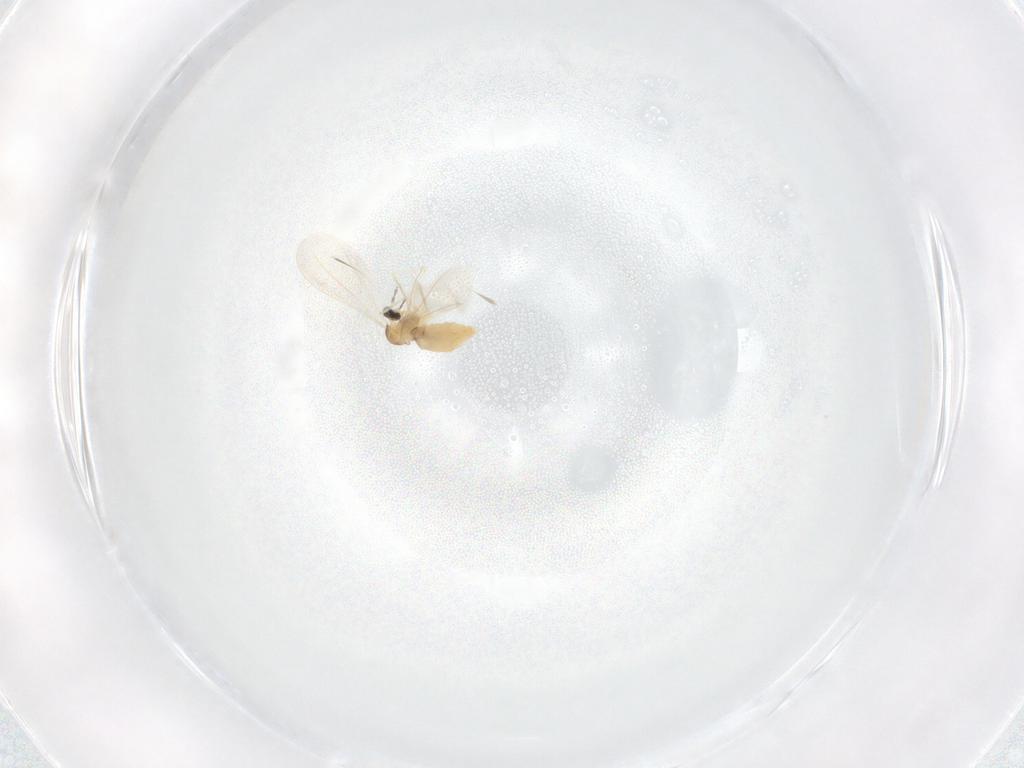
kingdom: Animalia
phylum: Arthropoda
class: Insecta
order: Diptera
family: Cecidomyiidae
